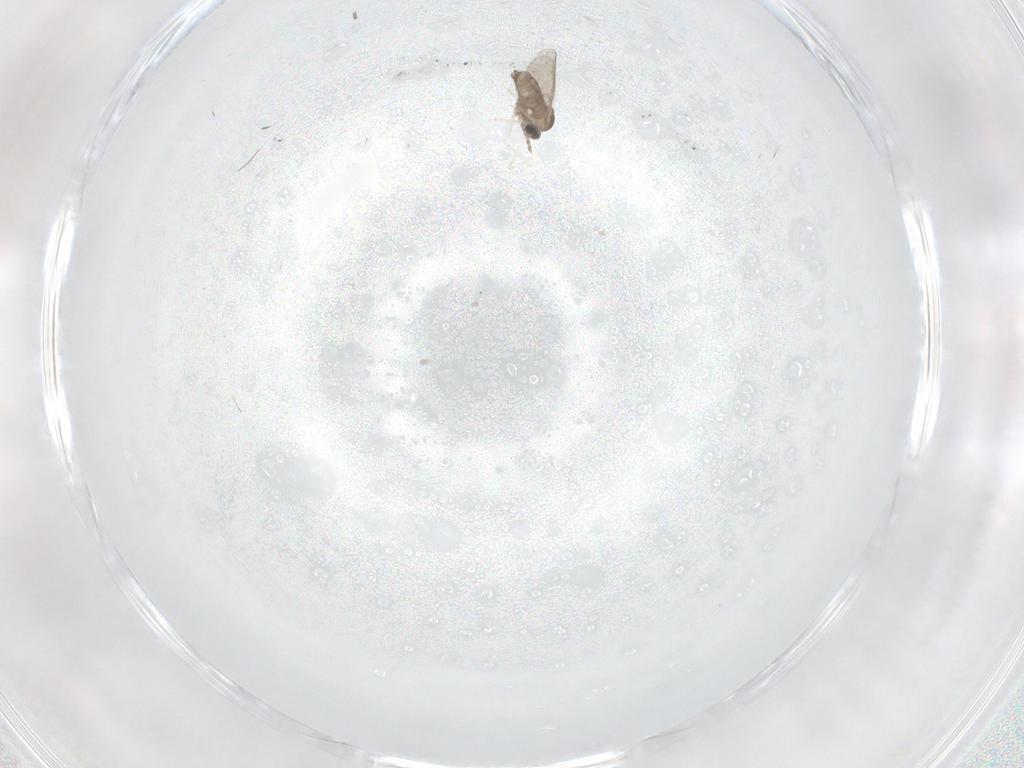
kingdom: Animalia
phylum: Arthropoda
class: Insecta
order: Diptera
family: Cecidomyiidae
